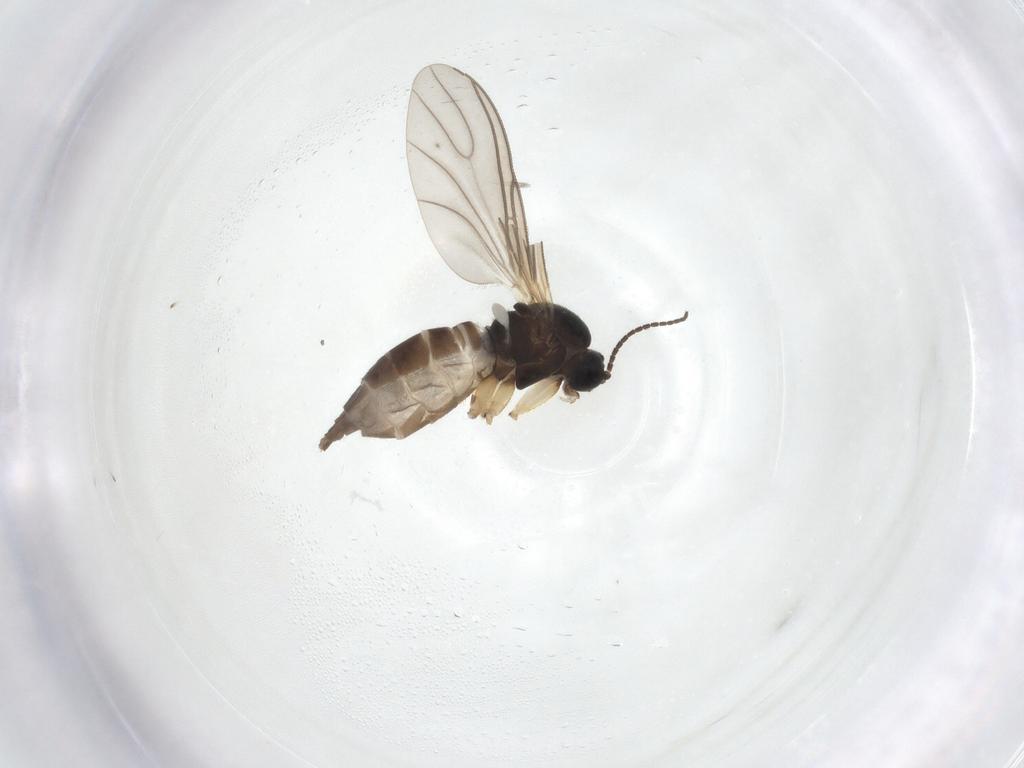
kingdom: Animalia
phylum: Arthropoda
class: Insecta
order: Diptera
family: Sciaridae
